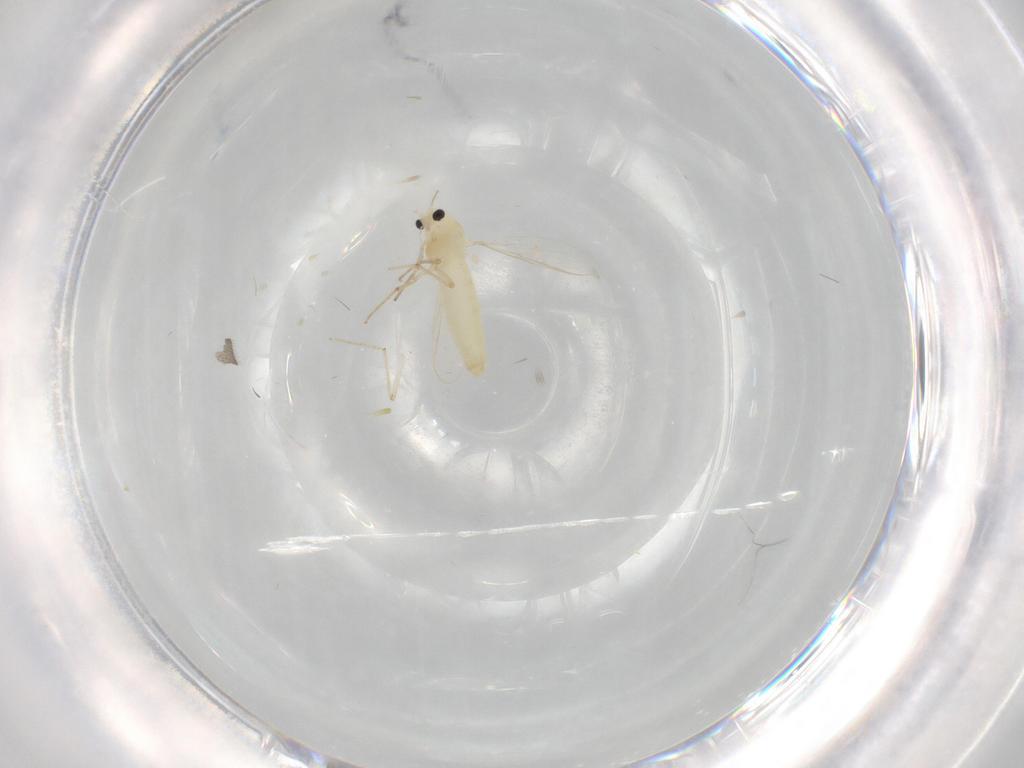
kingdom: Animalia
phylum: Arthropoda
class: Insecta
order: Diptera
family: Chironomidae
